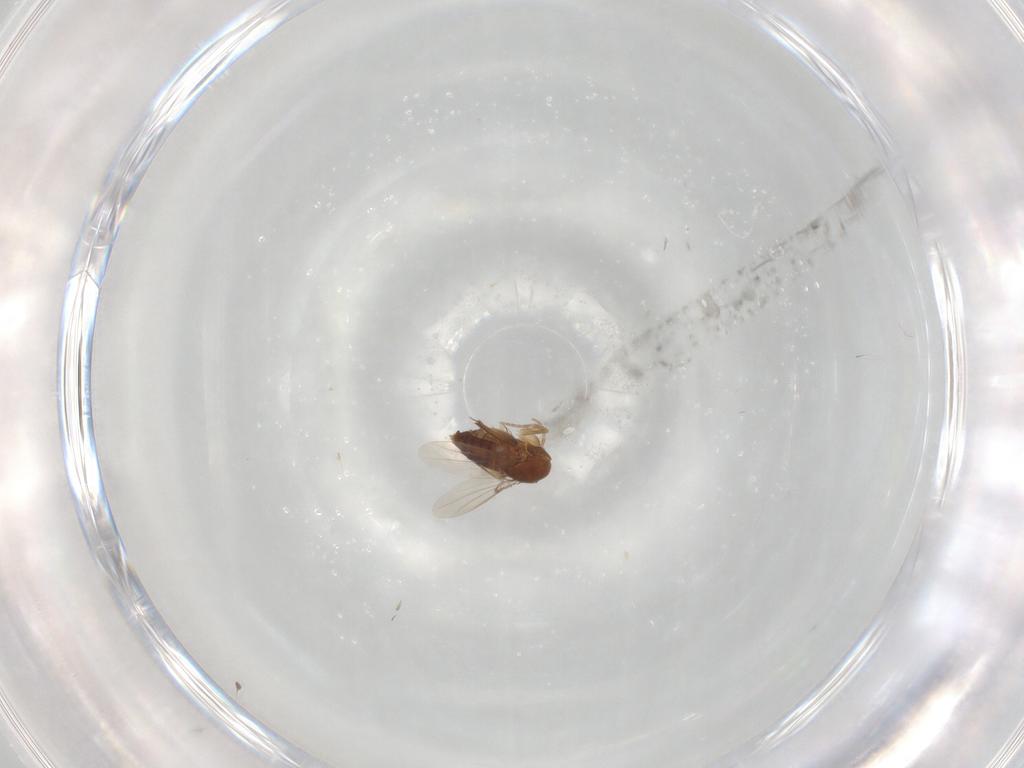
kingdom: Animalia
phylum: Arthropoda
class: Insecta
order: Diptera
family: Phoridae
